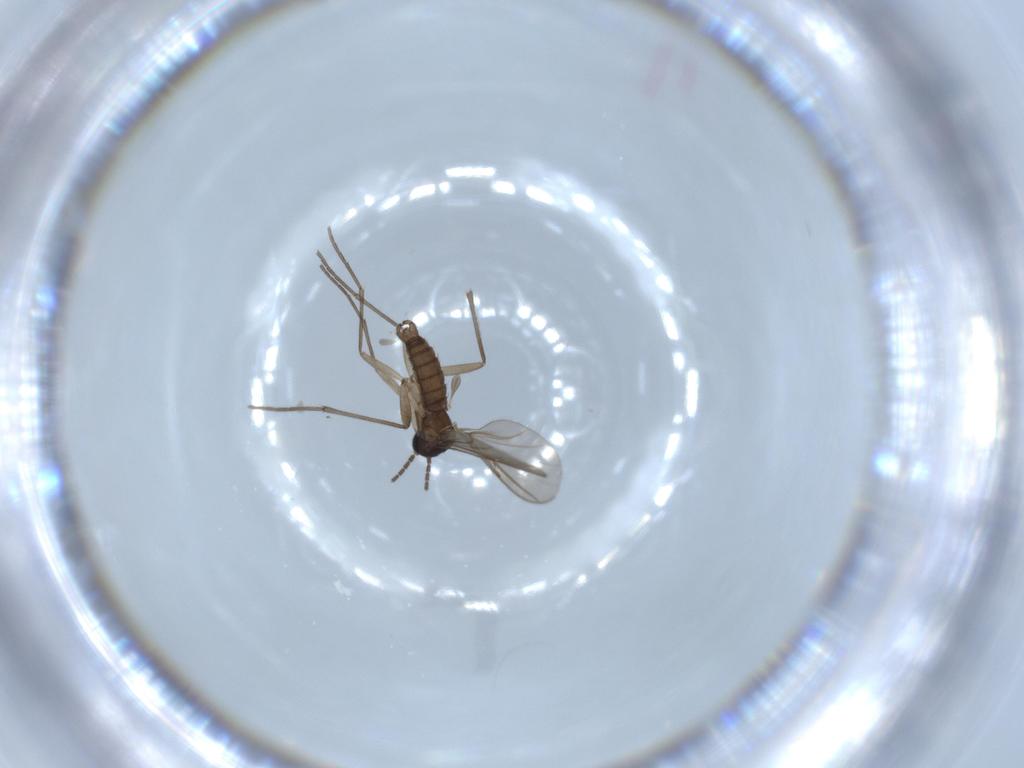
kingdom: Animalia
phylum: Arthropoda
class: Insecta
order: Diptera
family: Sciaridae
